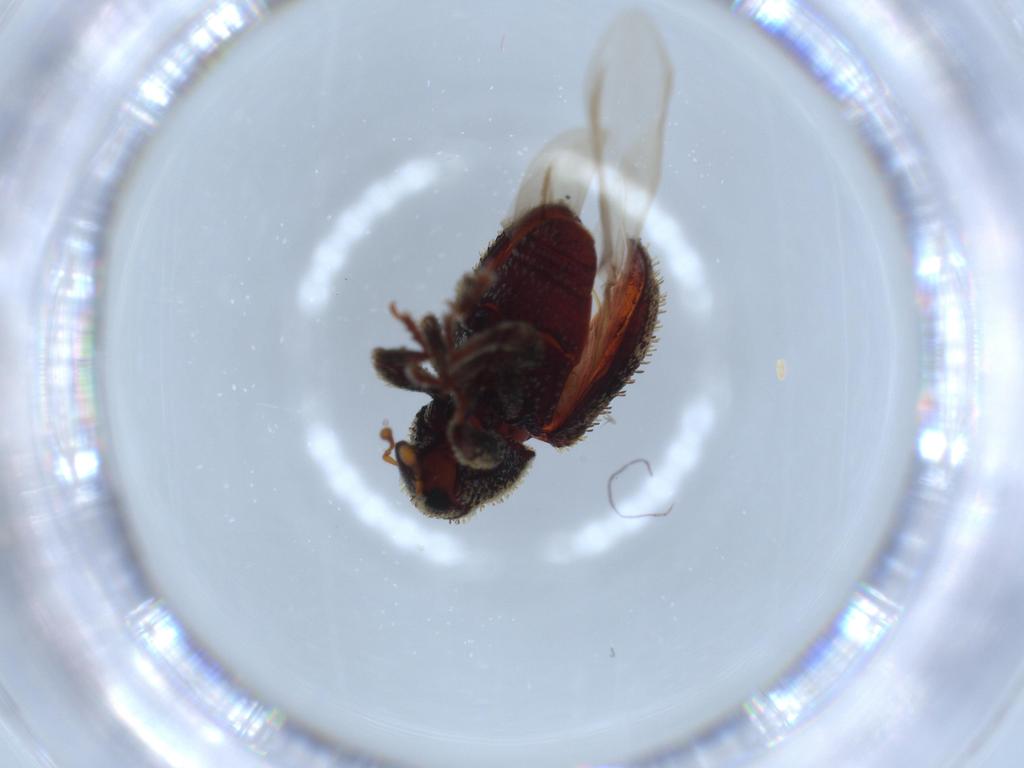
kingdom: Animalia
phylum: Arthropoda
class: Insecta
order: Coleoptera
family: Curculionidae
